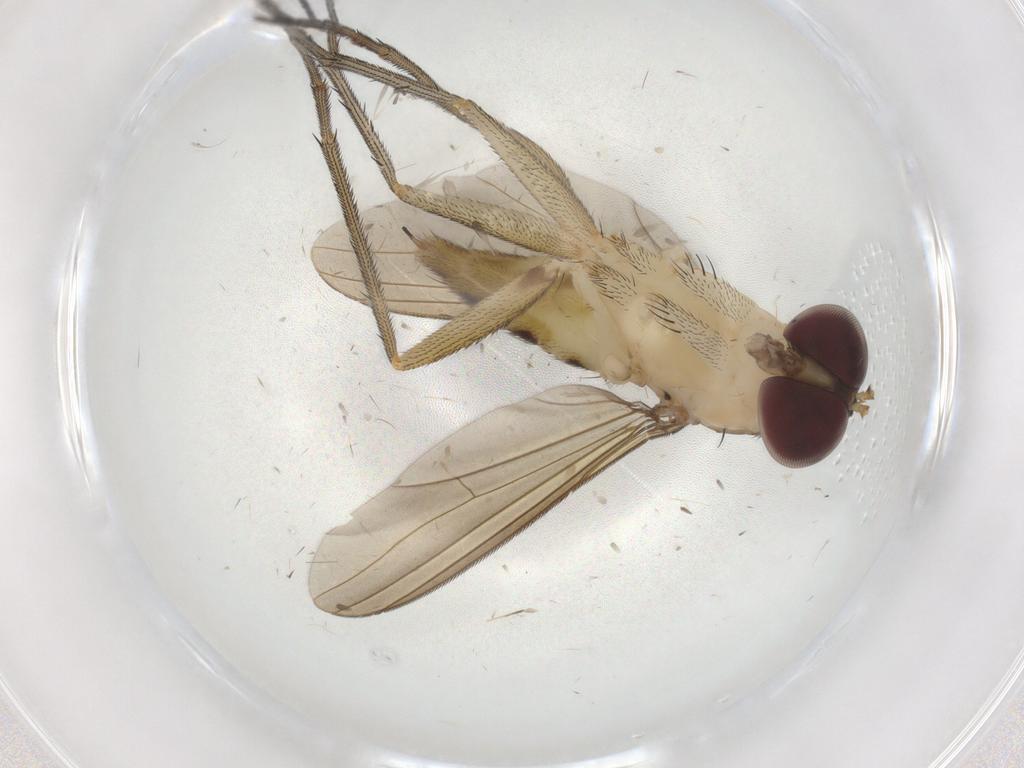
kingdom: Animalia
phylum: Arthropoda
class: Insecta
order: Diptera
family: Dolichopodidae
